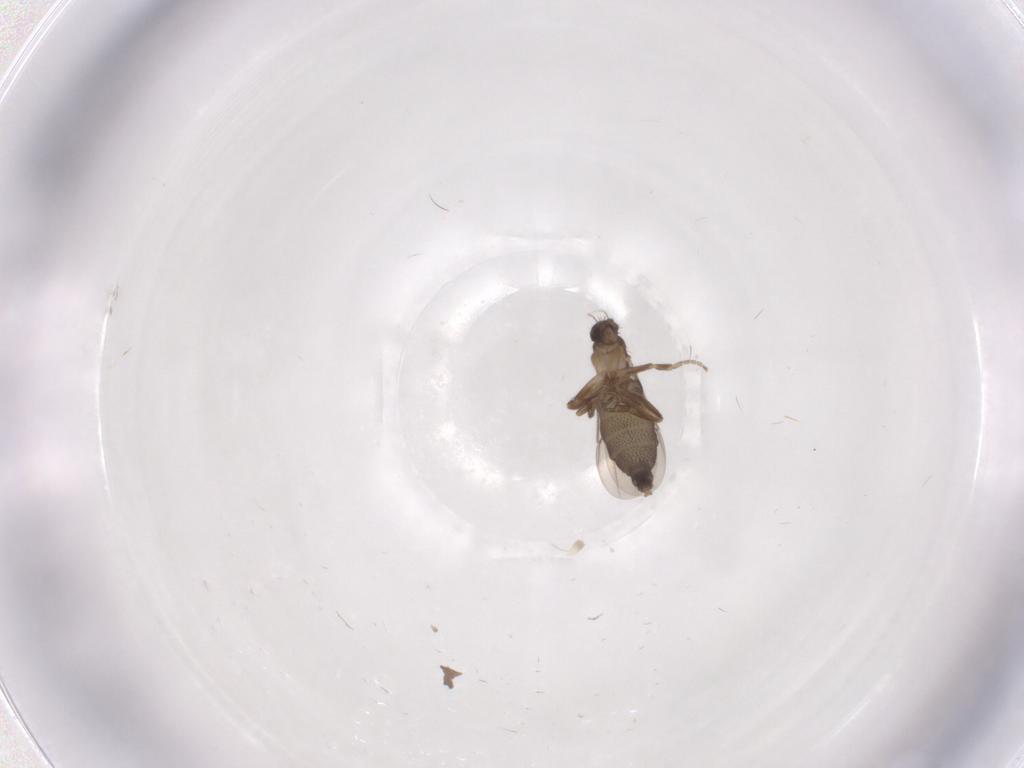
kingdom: Animalia
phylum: Arthropoda
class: Insecta
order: Diptera
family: Phoridae
